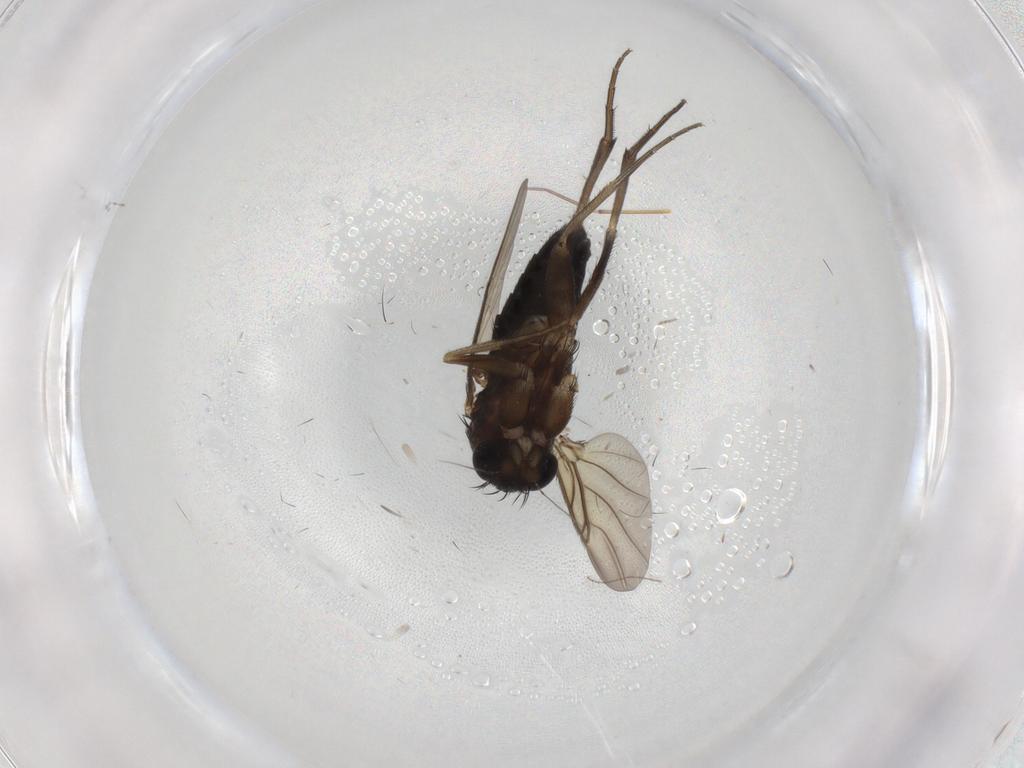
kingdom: Animalia
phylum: Arthropoda
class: Insecta
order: Diptera
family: Phoridae
